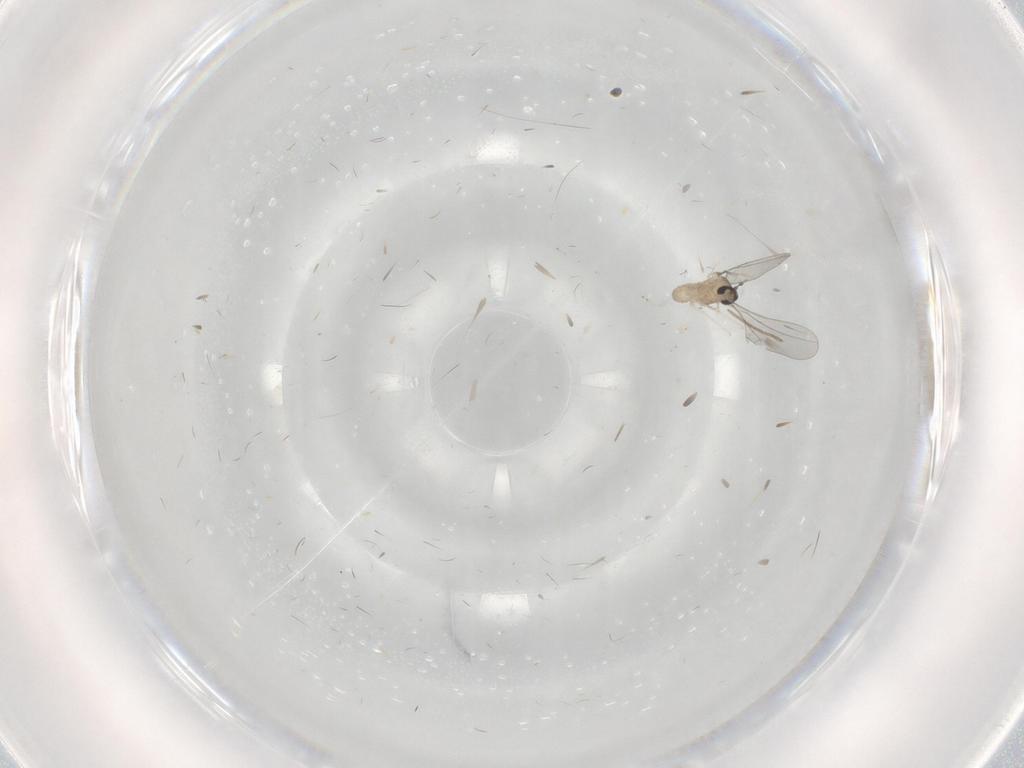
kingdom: Animalia
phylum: Arthropoda
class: Insecta
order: Diptera
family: Cecidomyiidae
